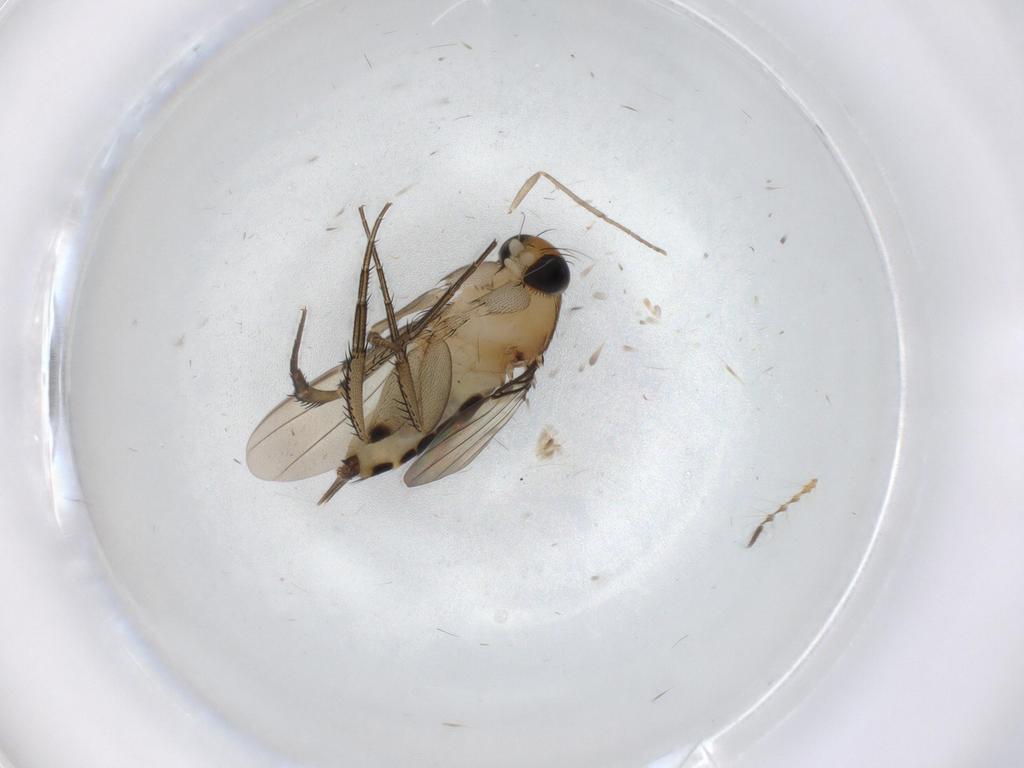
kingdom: Animalia
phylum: Arthropoda
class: Insecta
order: Diptera
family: Phoridae
